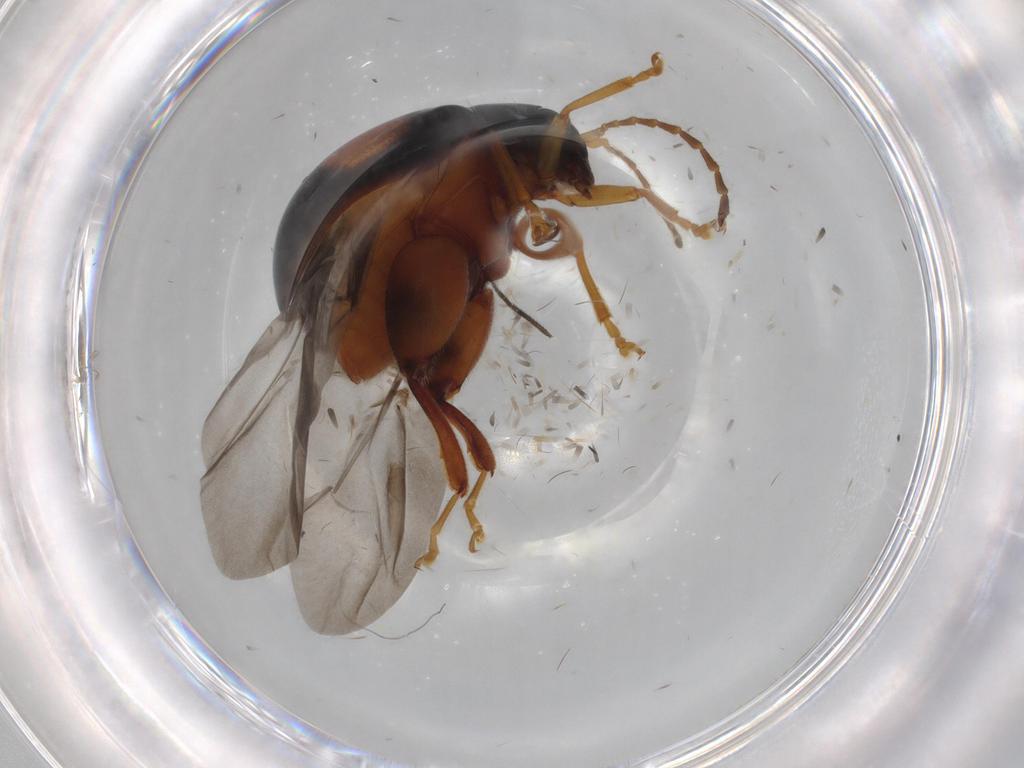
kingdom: Animalia
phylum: Arthropoda
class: Insecta
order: Coleoptera
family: Chrysomelidae
